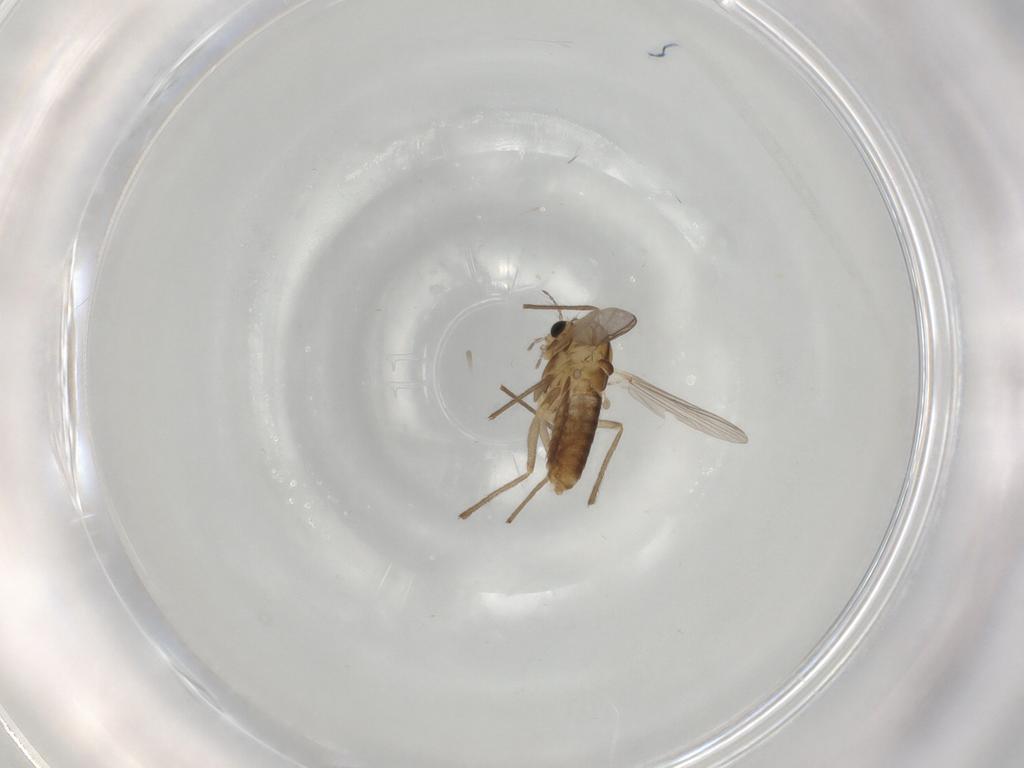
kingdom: Animalia
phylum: Arthropoda
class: Insecta
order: Diptera
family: Chironomidae
